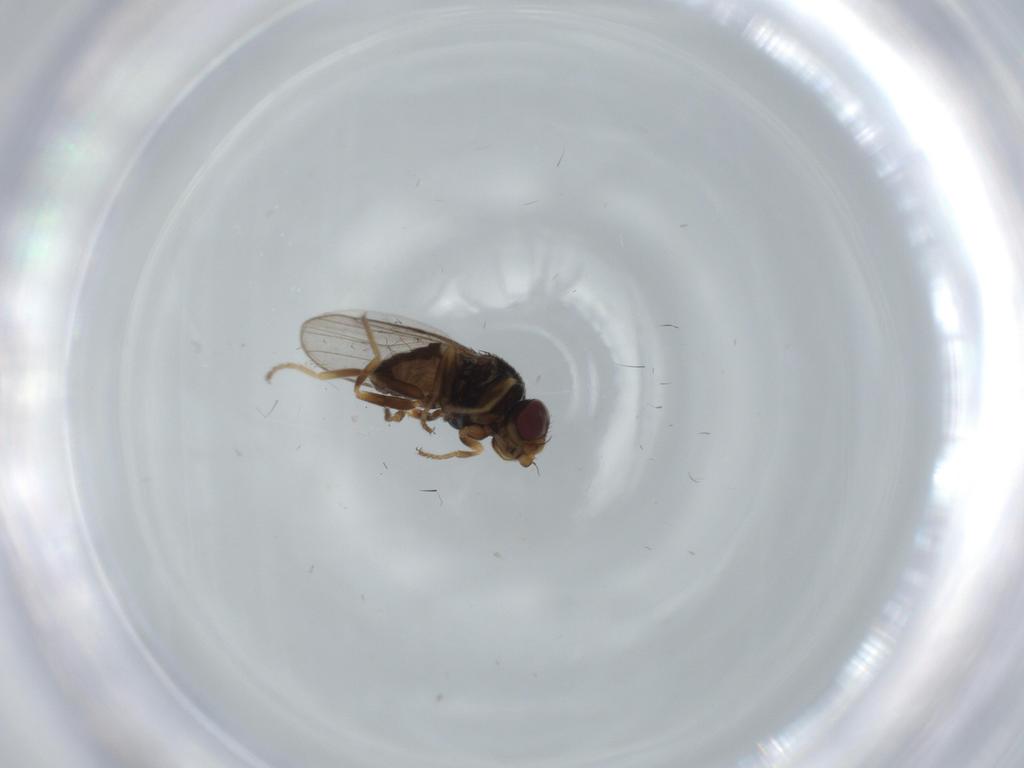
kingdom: Animalia
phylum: Arthropoda
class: Insecta
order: Diptera
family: Chloropidae
